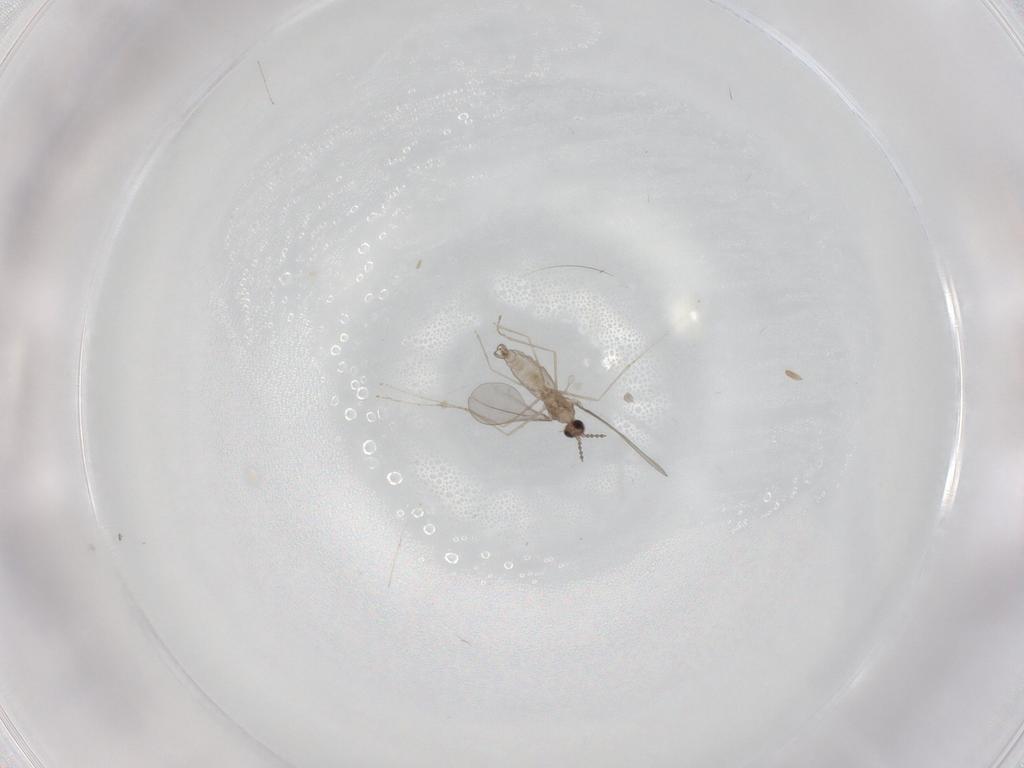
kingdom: Animalia
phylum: Arthropoda
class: Insecta
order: Diptera
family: Cecidomyiidae
